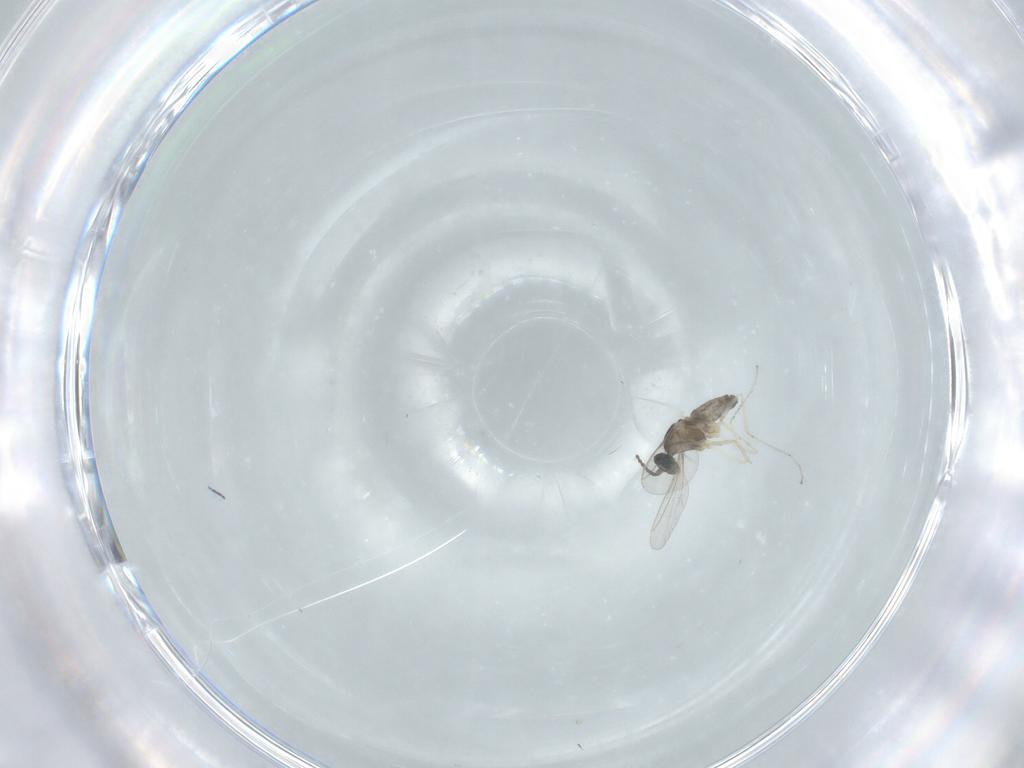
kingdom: Animalia
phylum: Arthropoda
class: Insecta
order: Diptera
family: Cecidomyiidae
